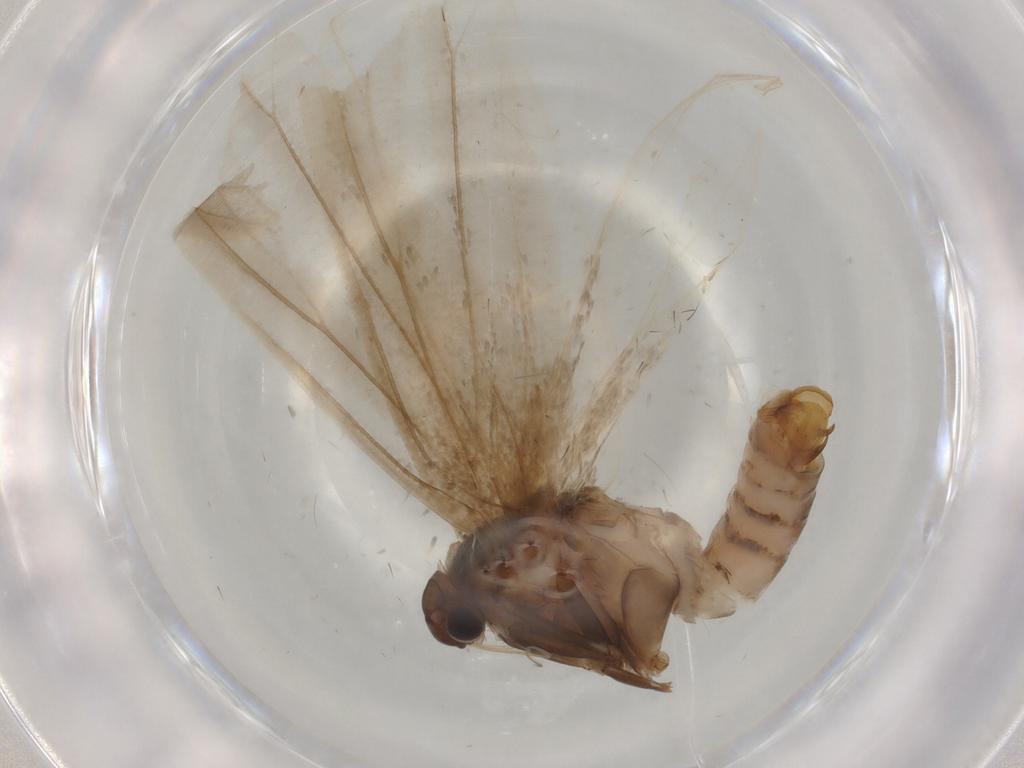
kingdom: Animalia
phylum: Arthropoda
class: Insecta
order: Lepidoptera
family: Yponomeutidae
